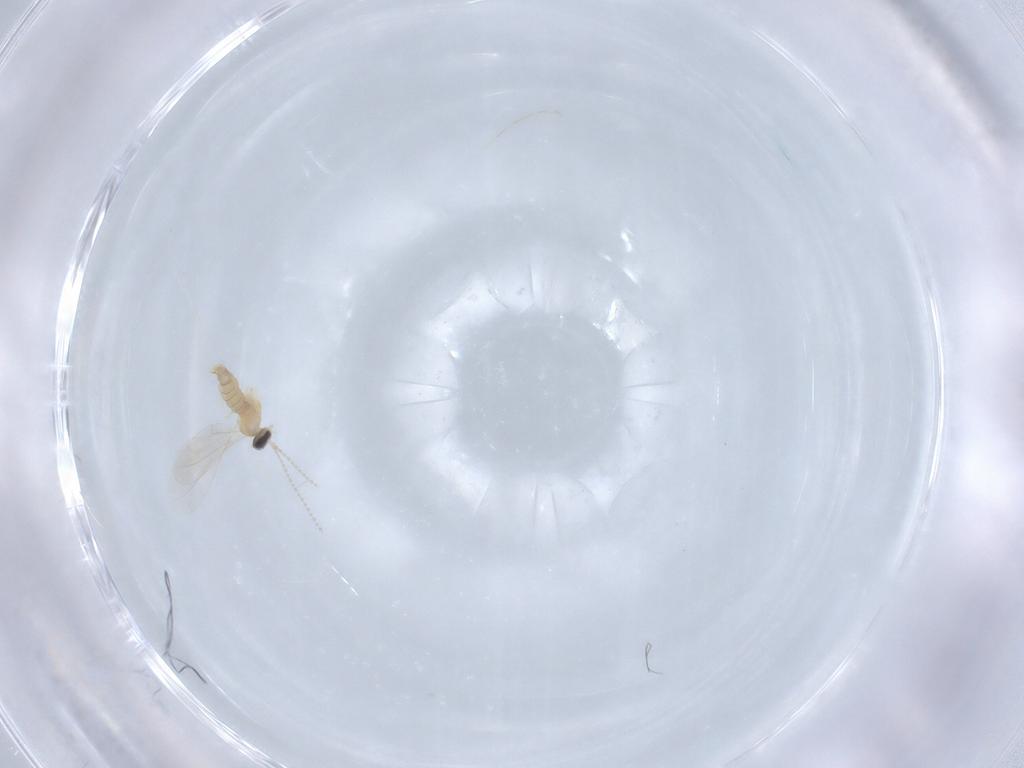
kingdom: Animalia
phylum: Arthropoda
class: Insecta
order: Diptera
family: Cecidomyiidae
